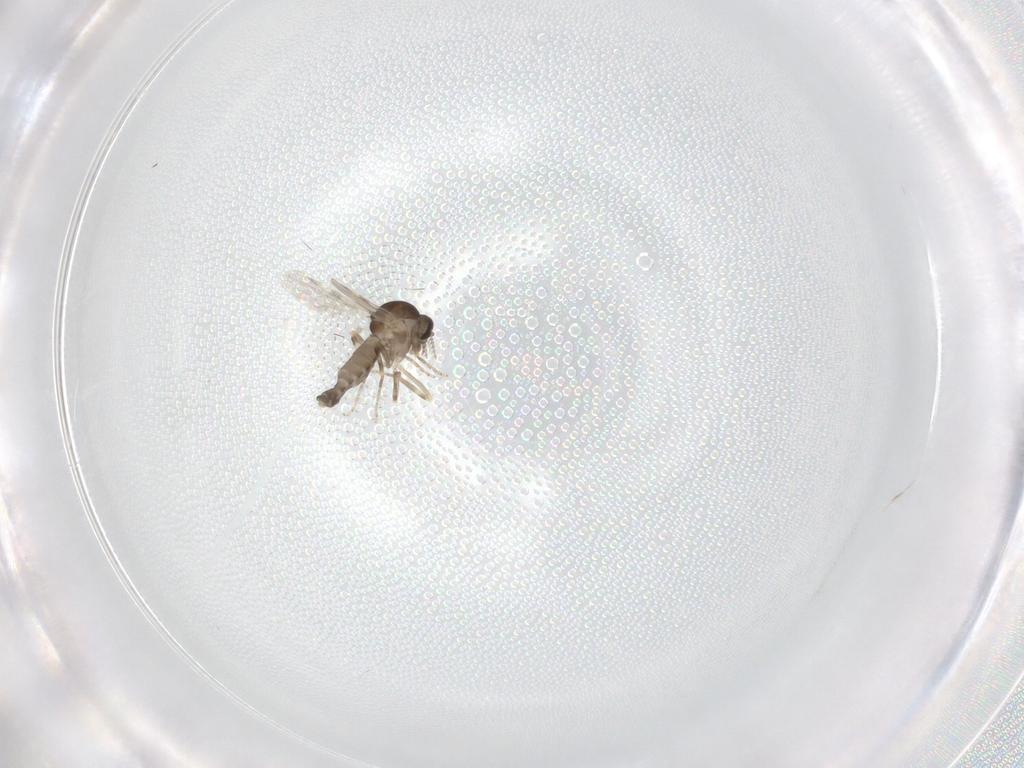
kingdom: Animalia
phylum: Arthropoda
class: Insecta
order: Diptera
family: Ceratopogonidae
